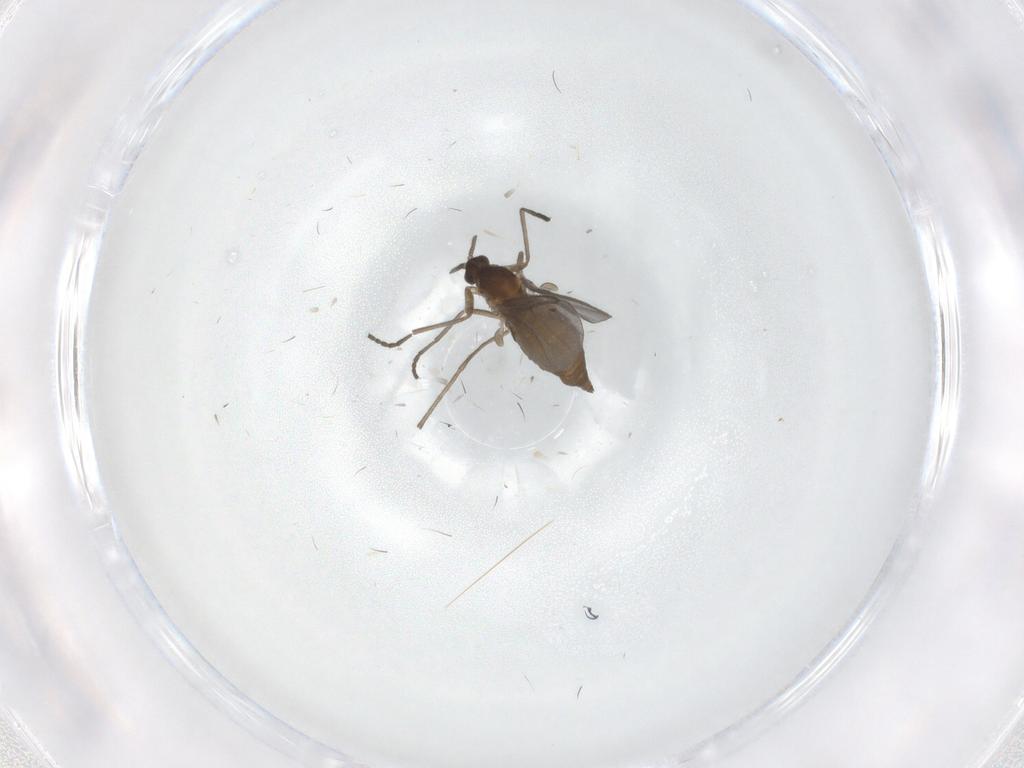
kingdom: Animalia
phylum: Arthropoda
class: Insecta
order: Diptera
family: Cecidomyiidae
